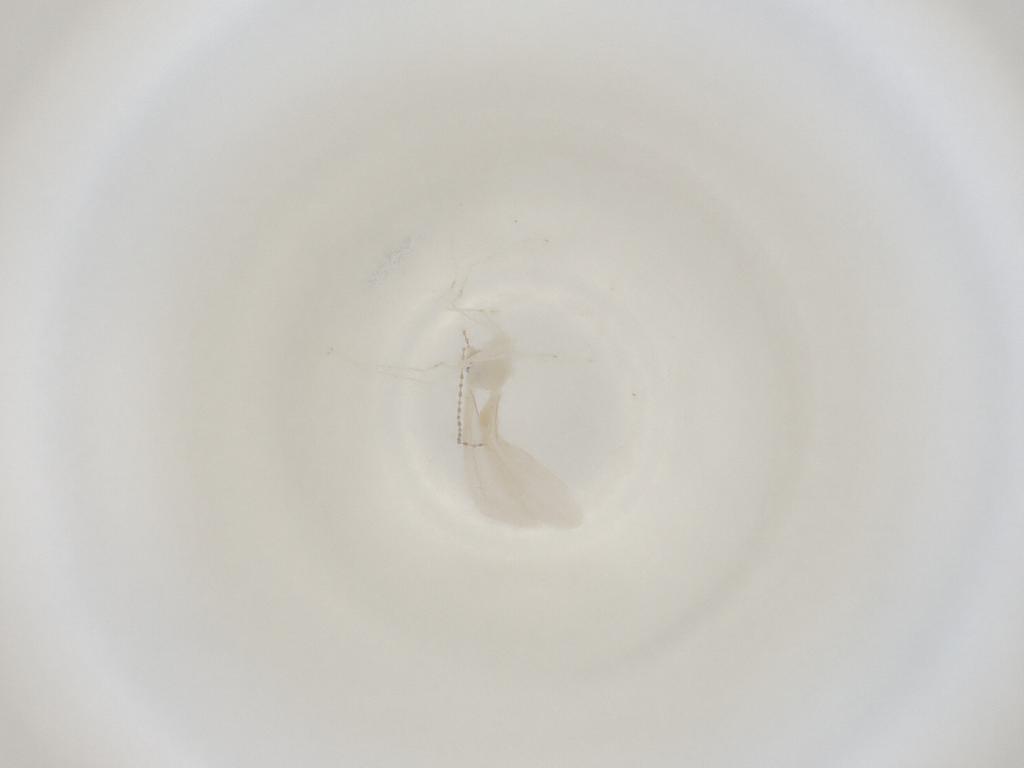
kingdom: Animalia
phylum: Arthropoda
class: Insecta
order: Diptera
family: Cecidomyiidae
